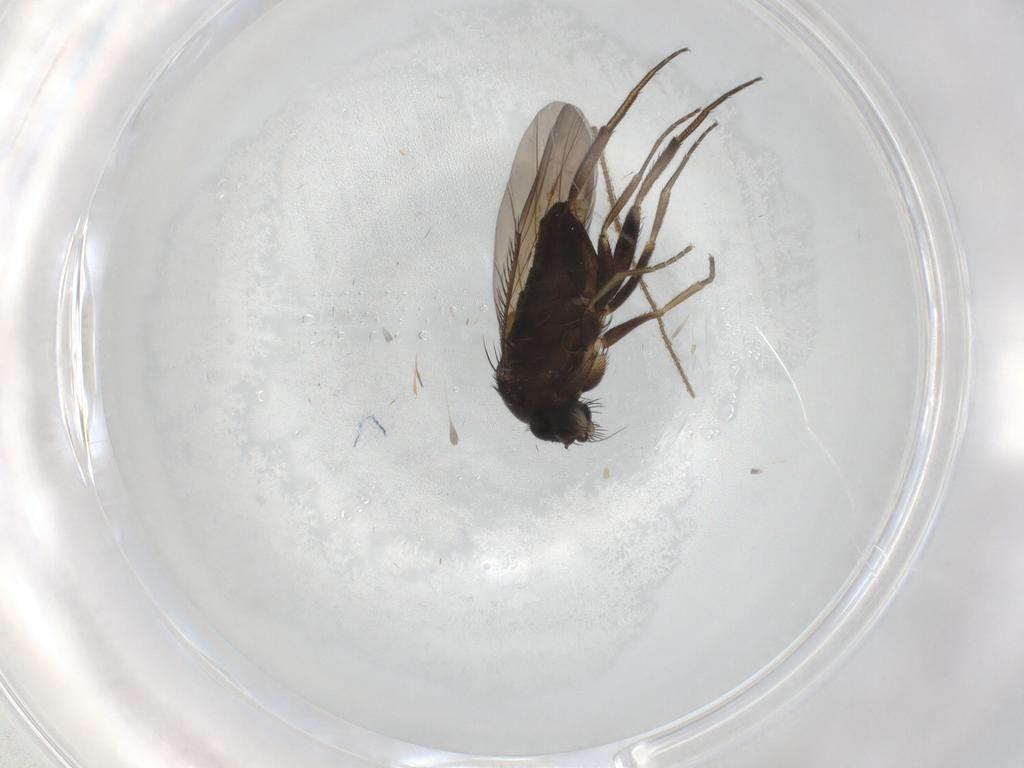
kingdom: Animalia
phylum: Arthropoda
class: Insecta
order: Diptera
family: Phoridae
